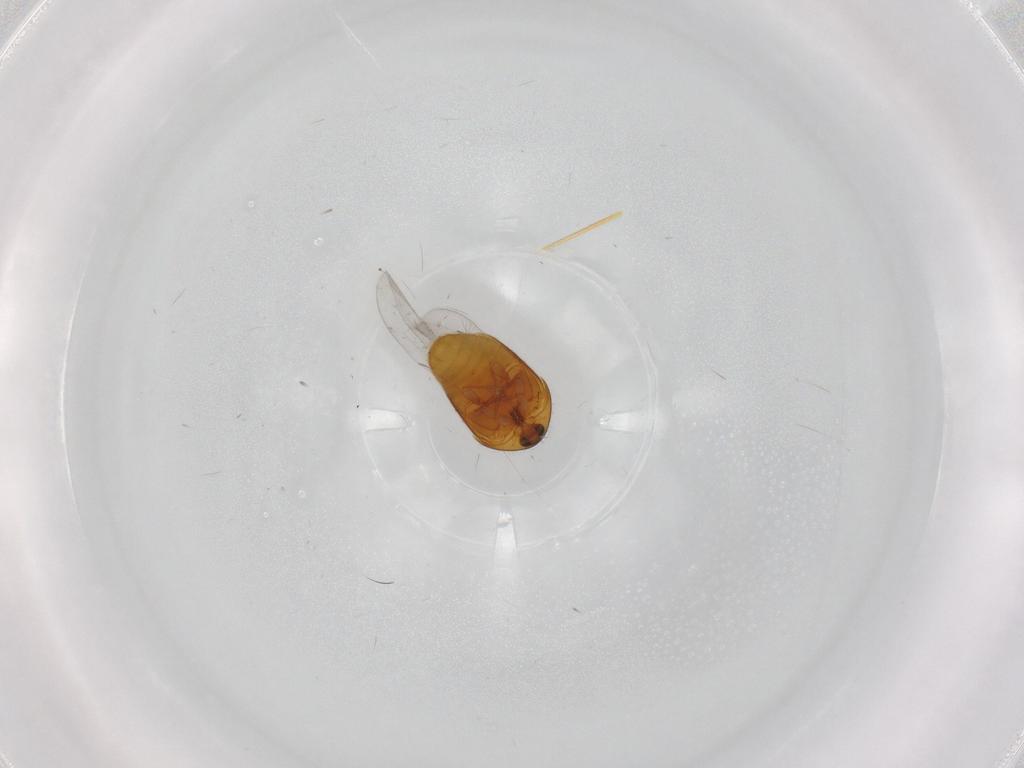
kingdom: Animalia
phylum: Arthropoda
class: Insecta
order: Coleoptera
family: Corylophidae
